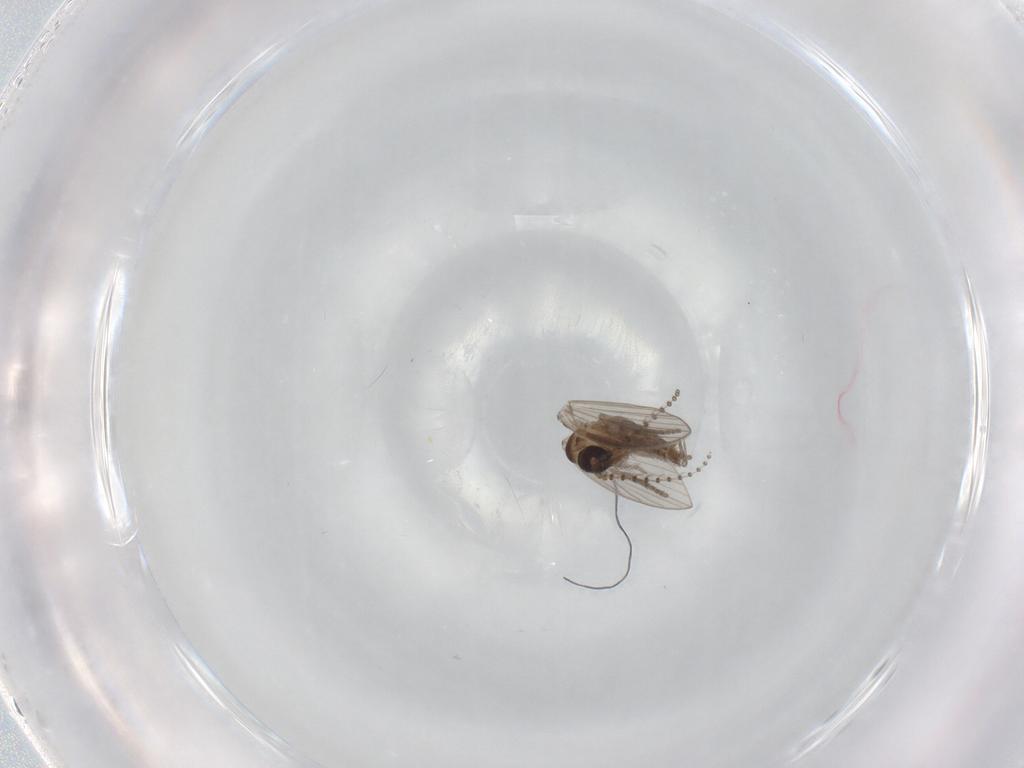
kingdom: Animalia
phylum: Arthropoda
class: Insecta
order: Diptera
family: Psychodidae
